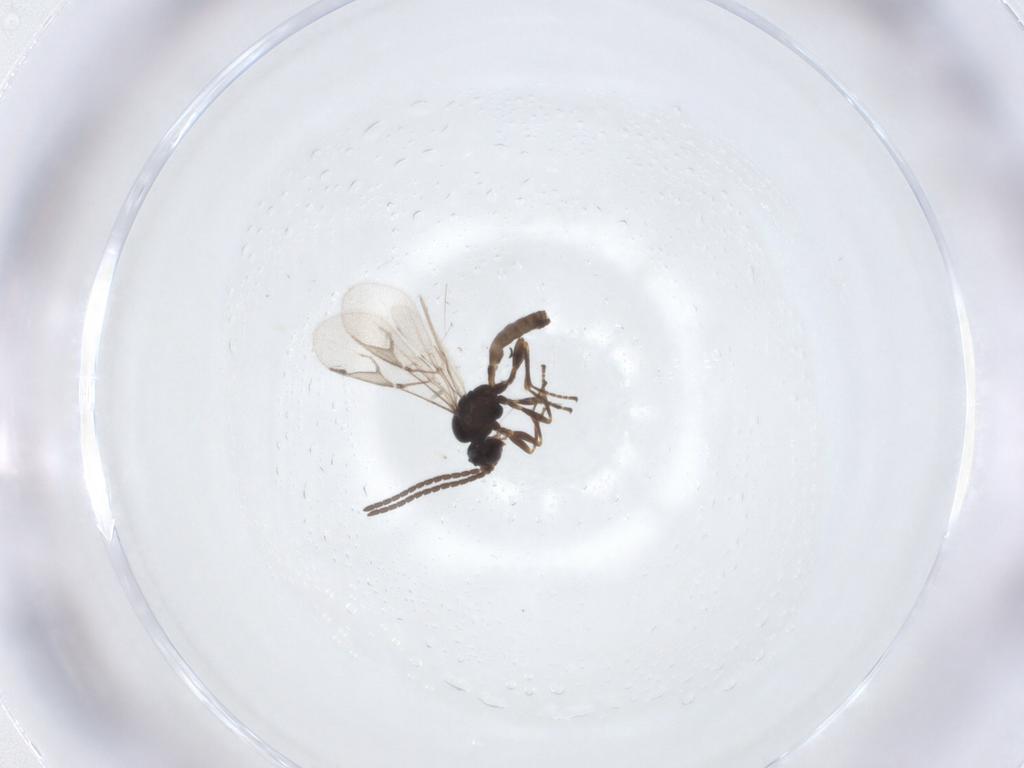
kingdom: Animalia
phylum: Arthropoda
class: Insecta
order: Hymenoptera
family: Braconidae
